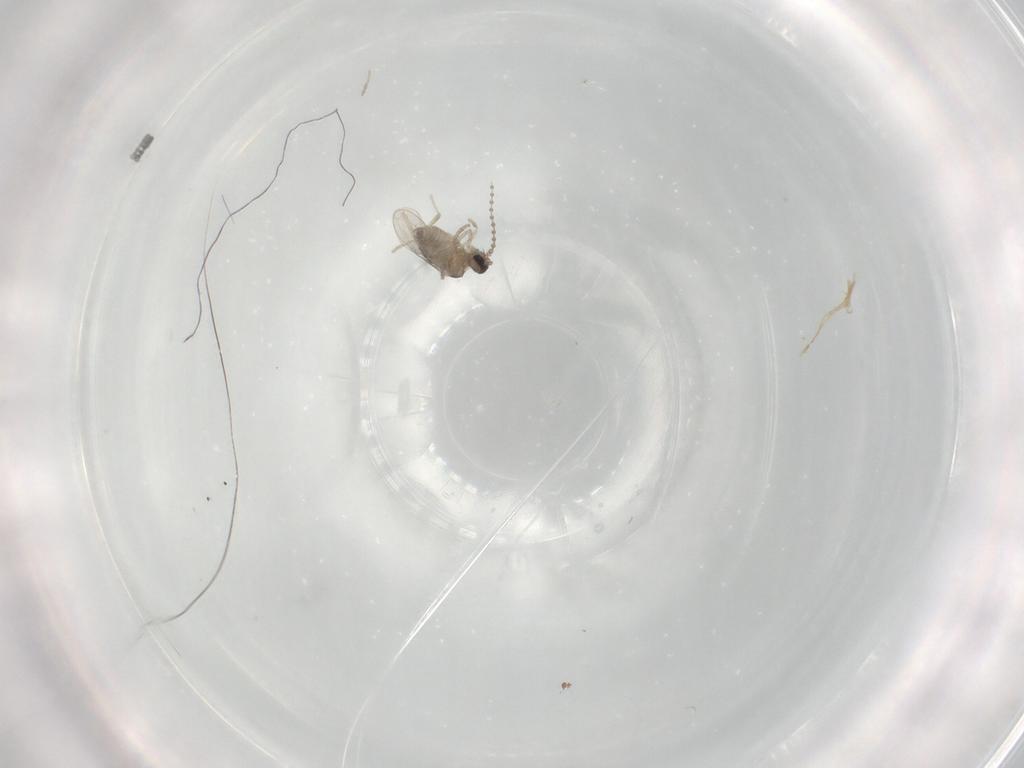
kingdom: Animalia
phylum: Arthropoda
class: Insecta
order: Diptera
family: Cecidomyiidae
